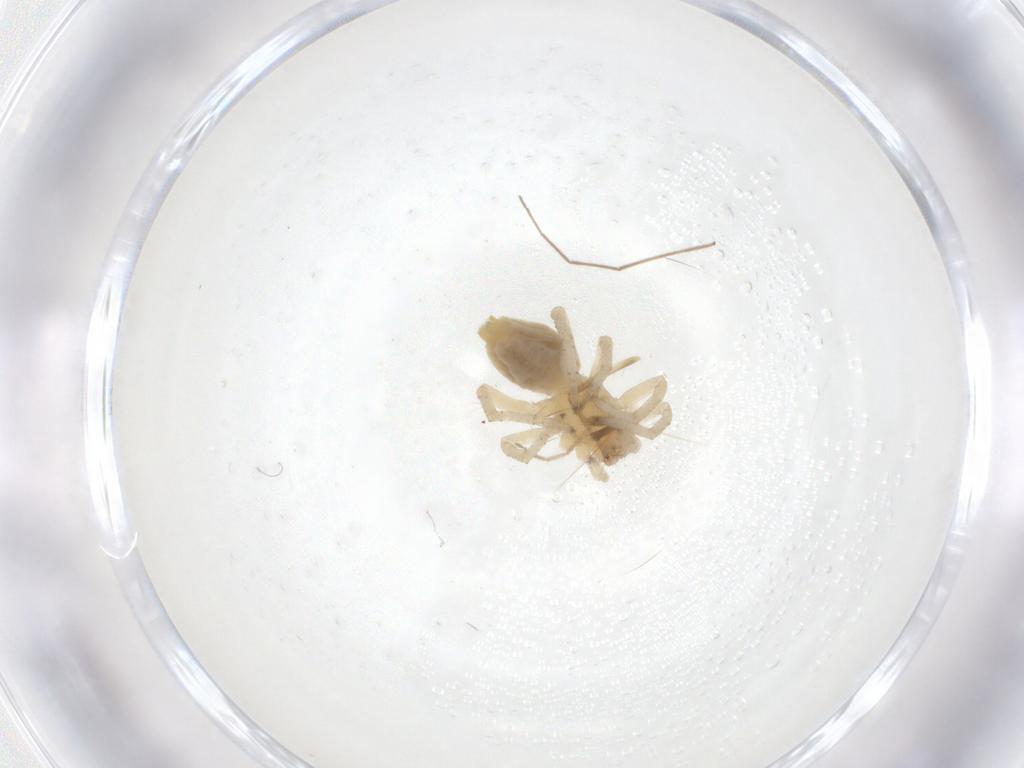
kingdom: Animalia
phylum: Arthropoda
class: Arachnida
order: Araneae
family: Clubionidae
